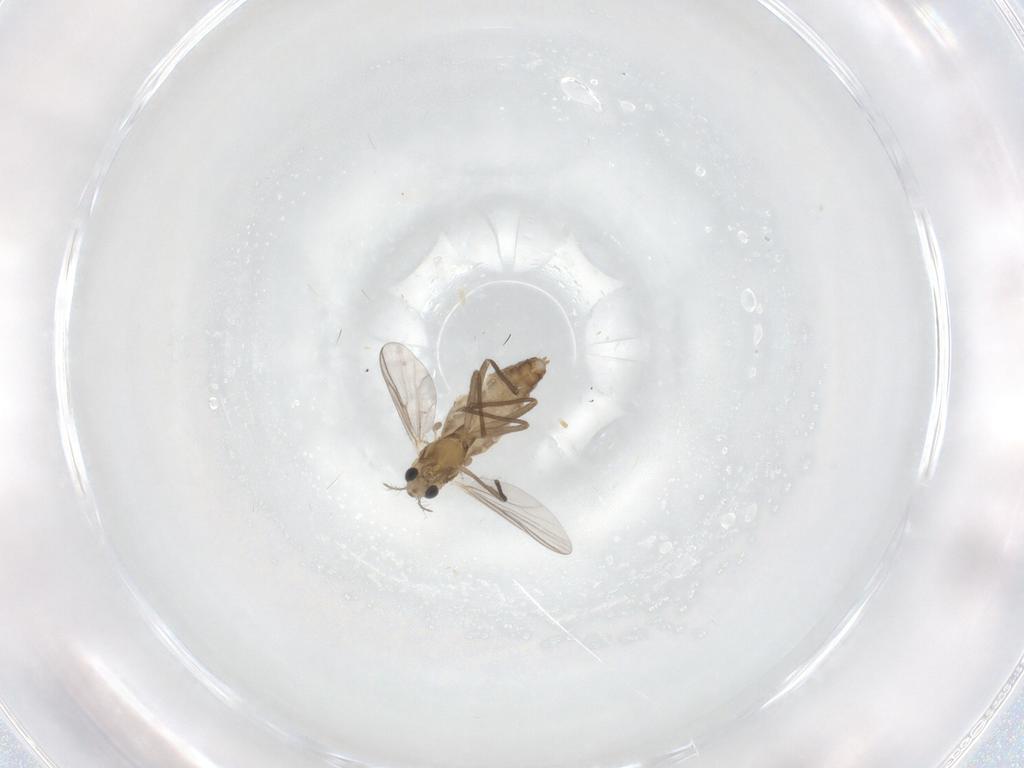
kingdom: Animalia
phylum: Arthropoda
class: Insecta
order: Diptera
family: Chironomidae
